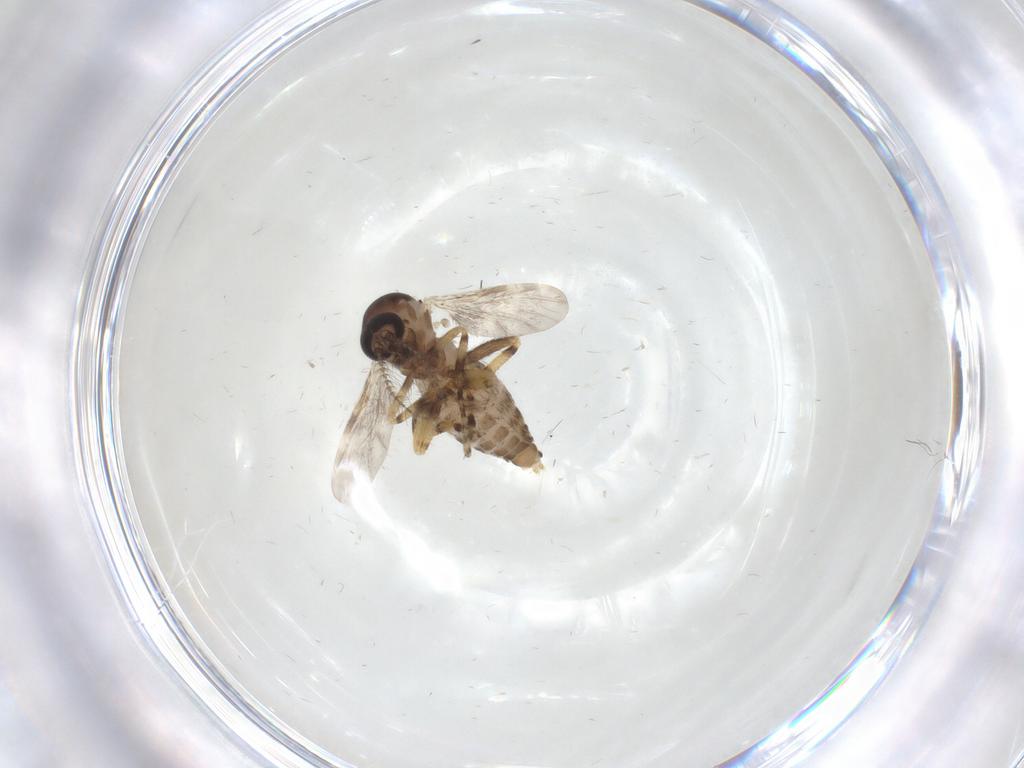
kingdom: Animalia
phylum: Arthropoda
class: Insecta
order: Diptera
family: Ceratopogonidae
